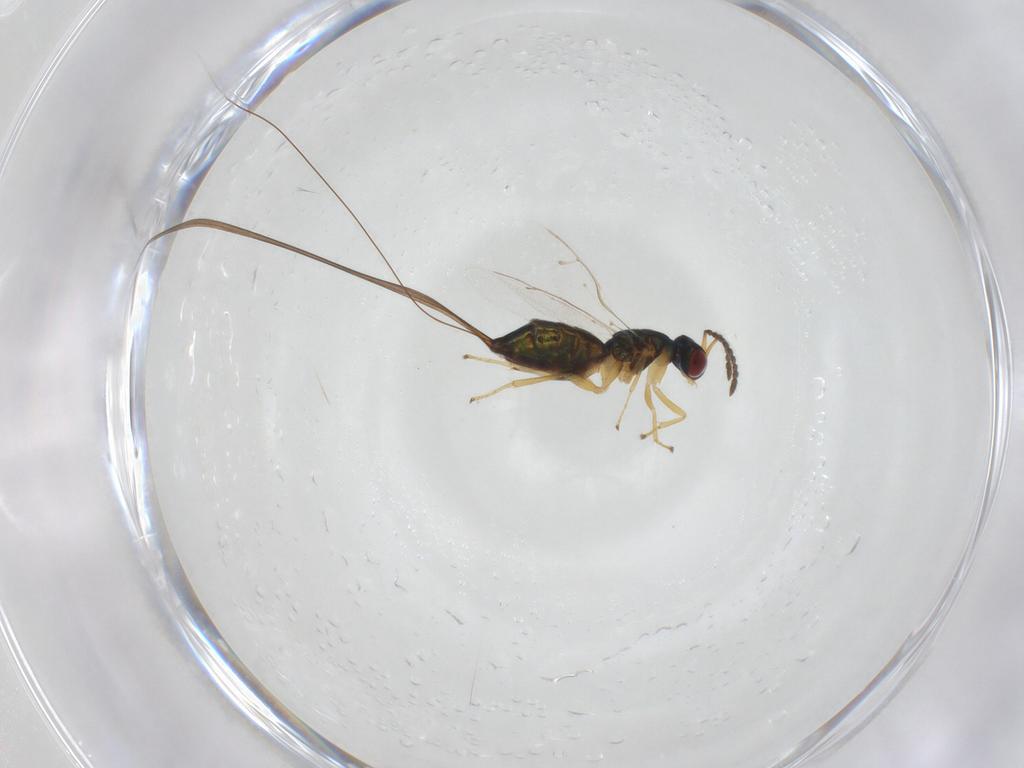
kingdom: Animalia
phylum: Arthropoda
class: Insecta
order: Hymenoptera
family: Pteromalidae
